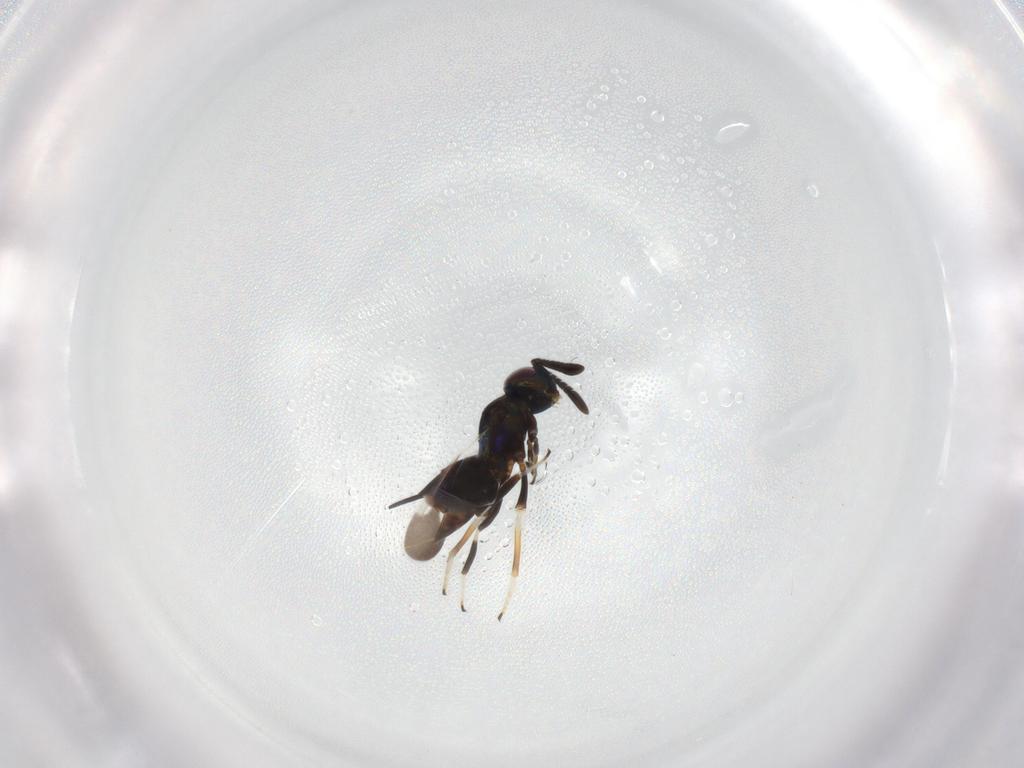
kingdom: Animalia
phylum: Arthropoda
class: Insecta
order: Hymenoptera
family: Encyrtidae
